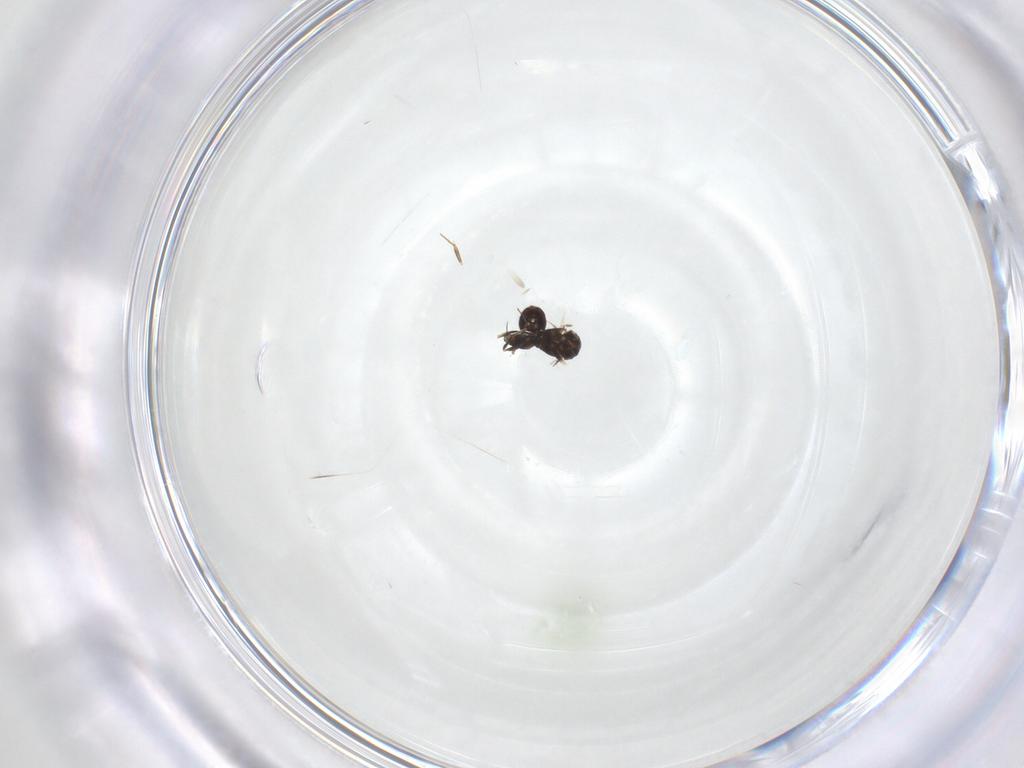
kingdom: Animalia
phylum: Arthropoda
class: Insecta
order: Hymenoptera
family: Mymaridae
